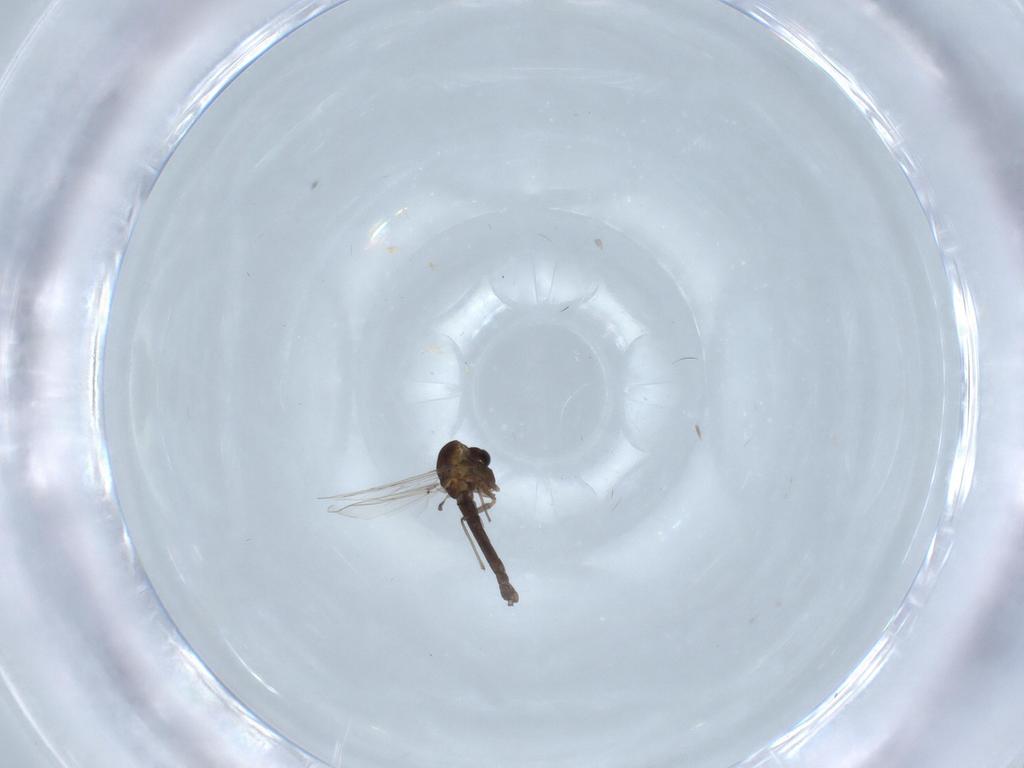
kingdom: Animalia
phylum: Arthropoda
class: Insecta
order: Diptera
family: Chironomidae
